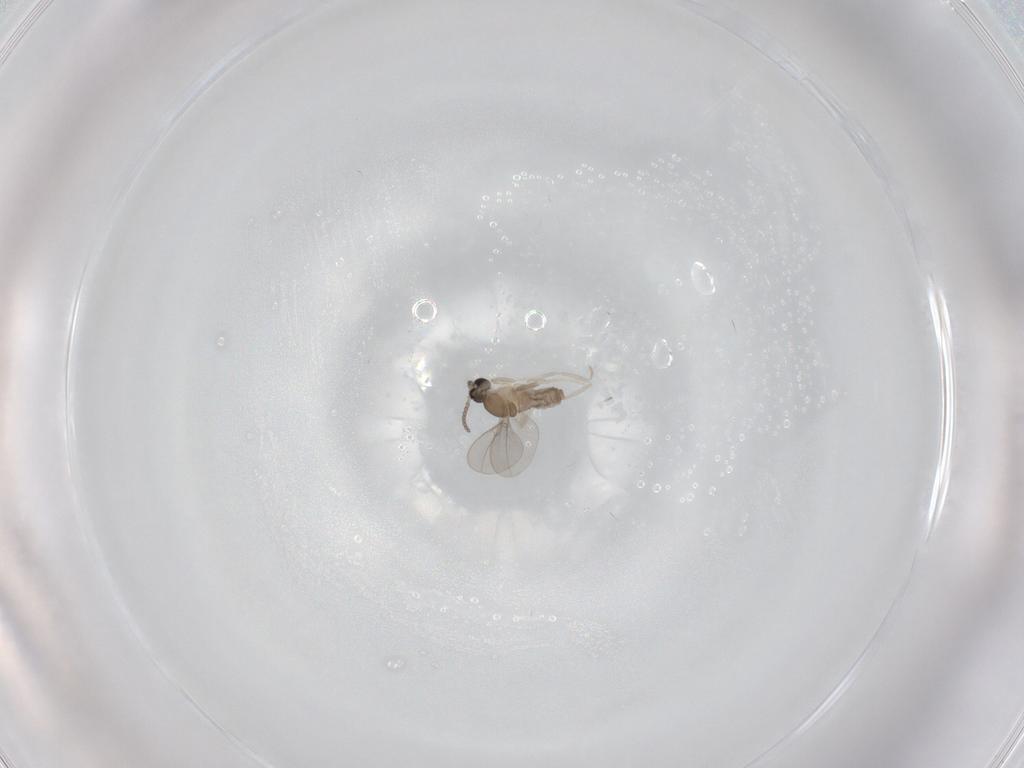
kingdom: Animalia
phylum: Arthropoda
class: Insecta
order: Diptera
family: Cecidomyiidae
